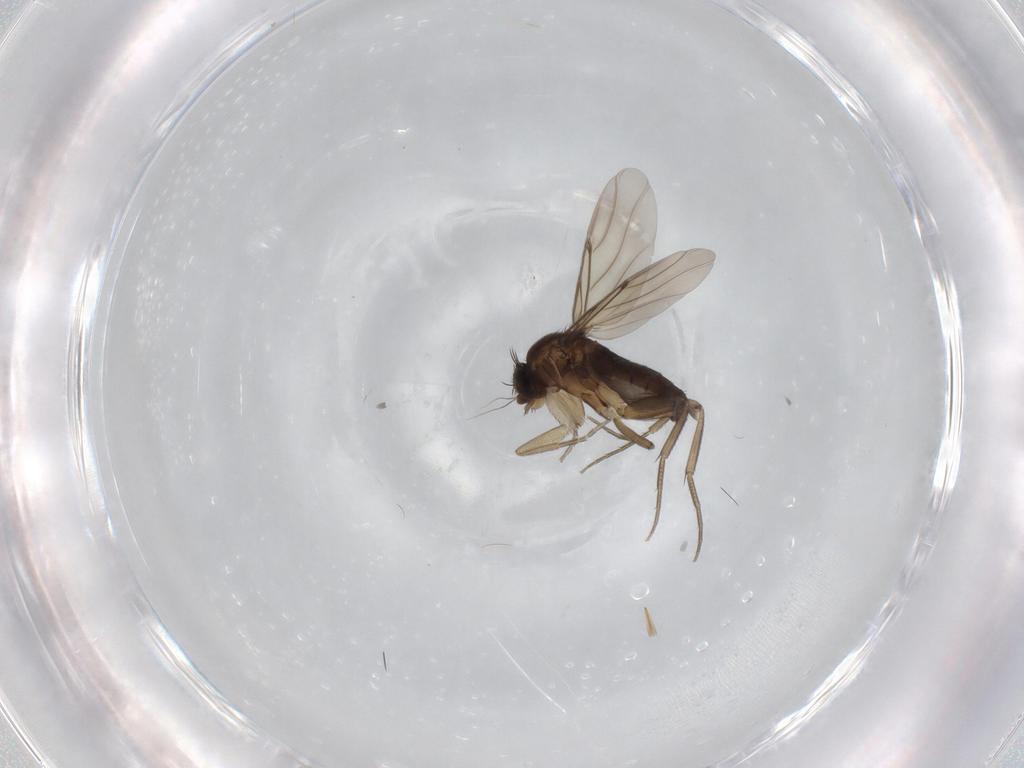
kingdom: Animalia
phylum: Arthropoda
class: Insecta
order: Diptera
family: Phoridae
